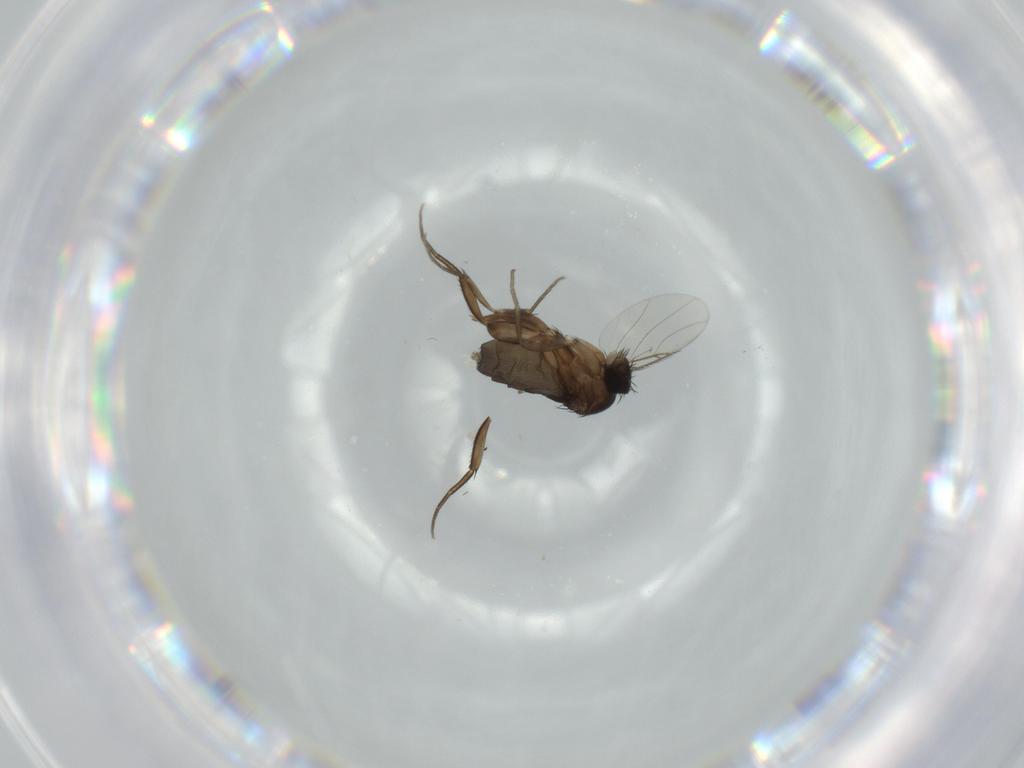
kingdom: Animalia
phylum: Arthropoda
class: Insecta
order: Diptera
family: Phoridae
